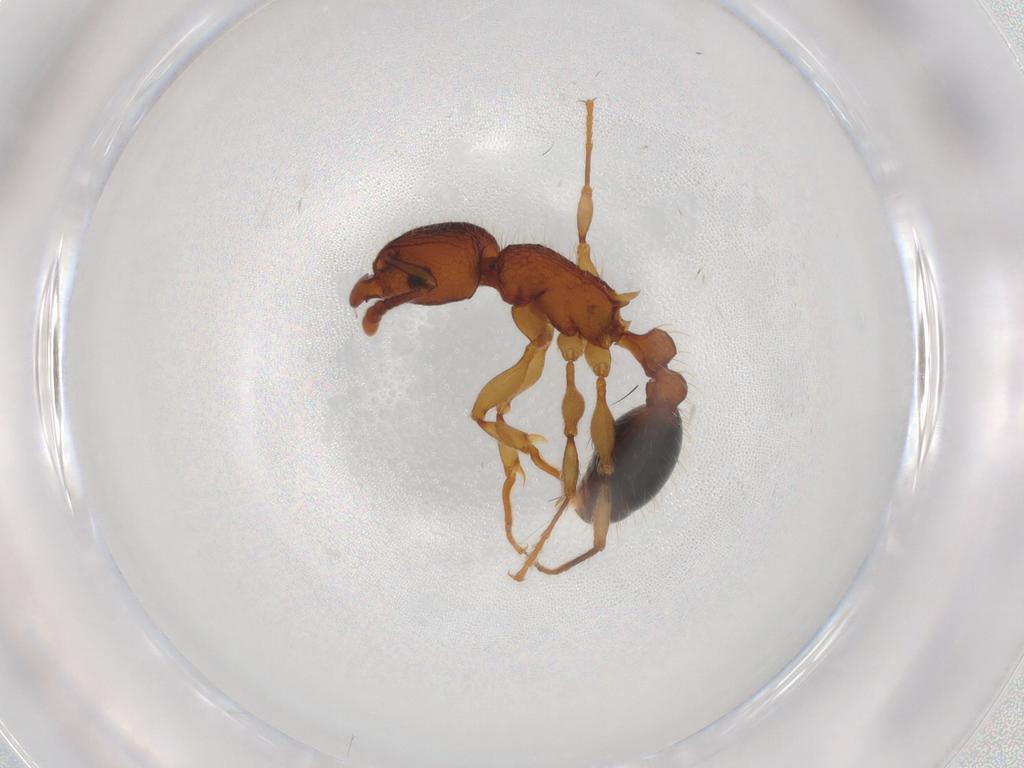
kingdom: Animalia
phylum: Arthropoda
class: Insecta
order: Hymenoptera
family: Formicidae
